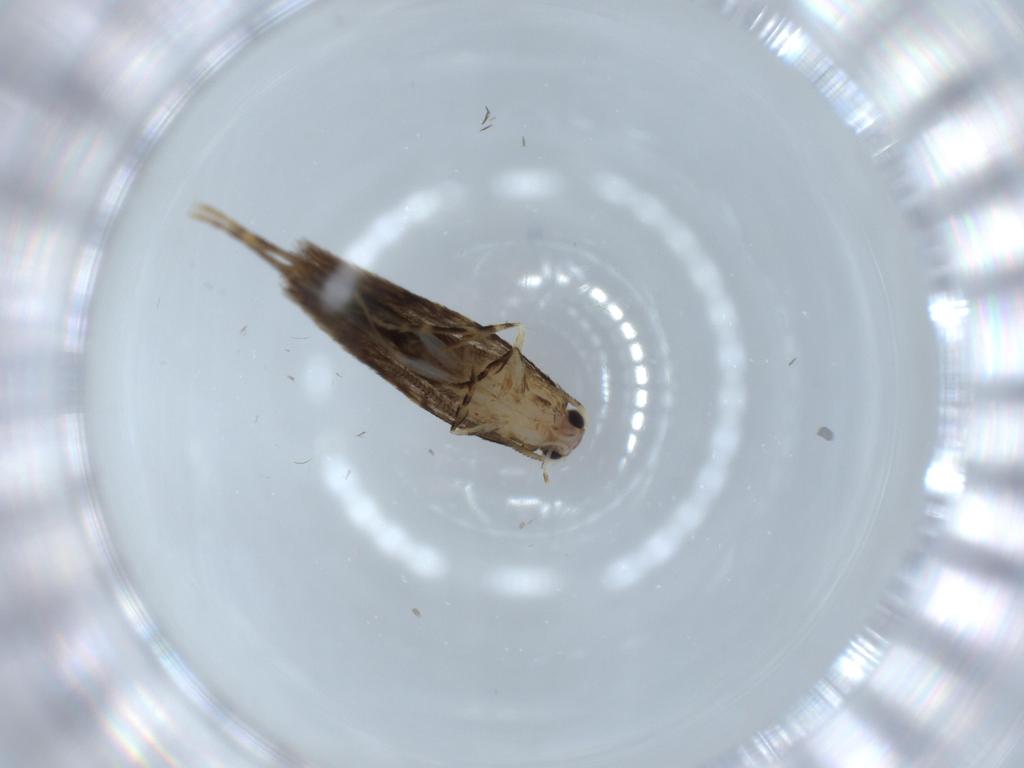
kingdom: Animalia
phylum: Arthropoda
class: Insecta
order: Lepidoptera
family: Tineidae
